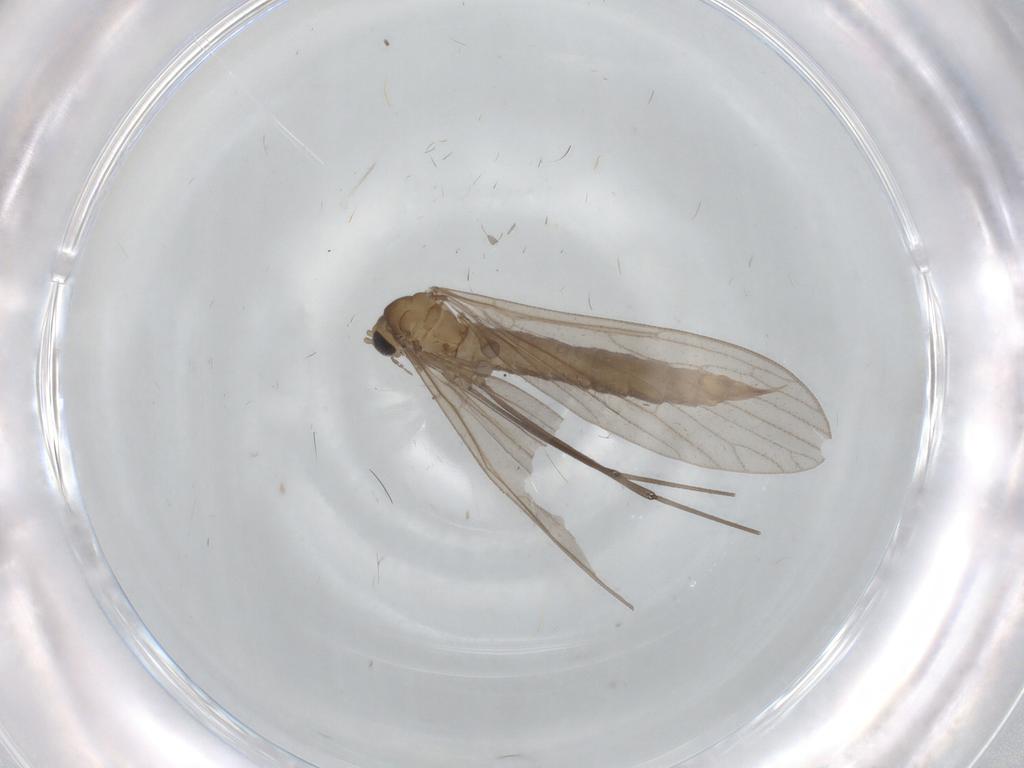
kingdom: Animalia
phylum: Arthropoda
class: Insecta
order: Diptera
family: Limoniidae
